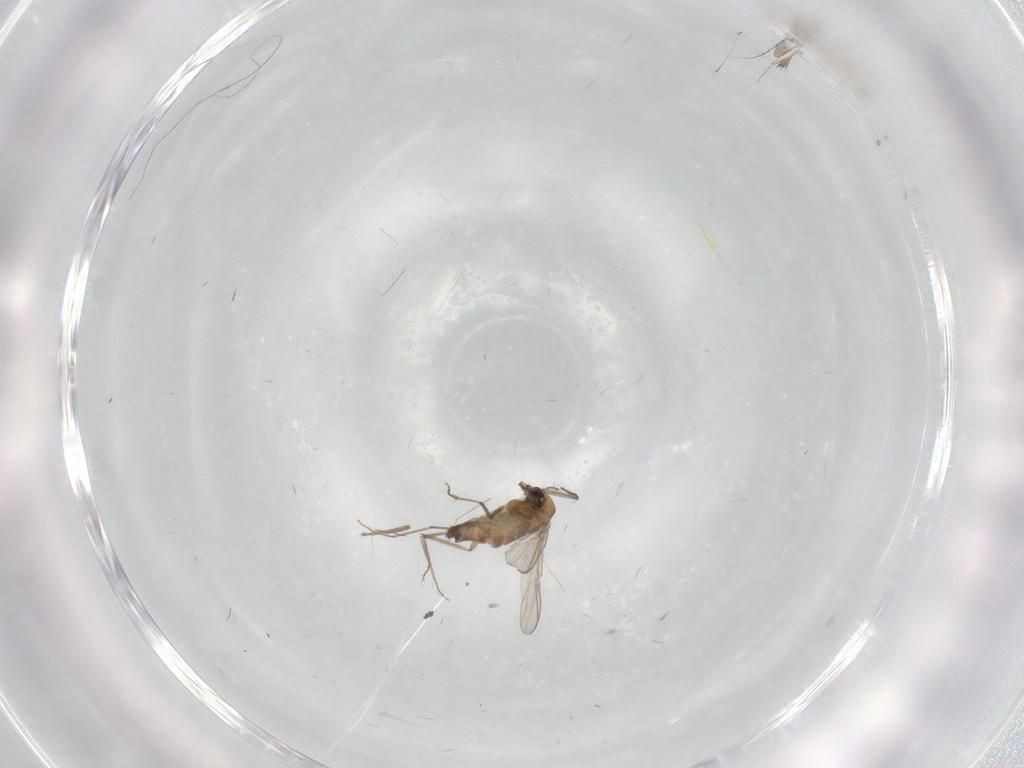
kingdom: Animalia
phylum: Arthropoda
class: Insecta
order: Diptera
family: Chironomidae
